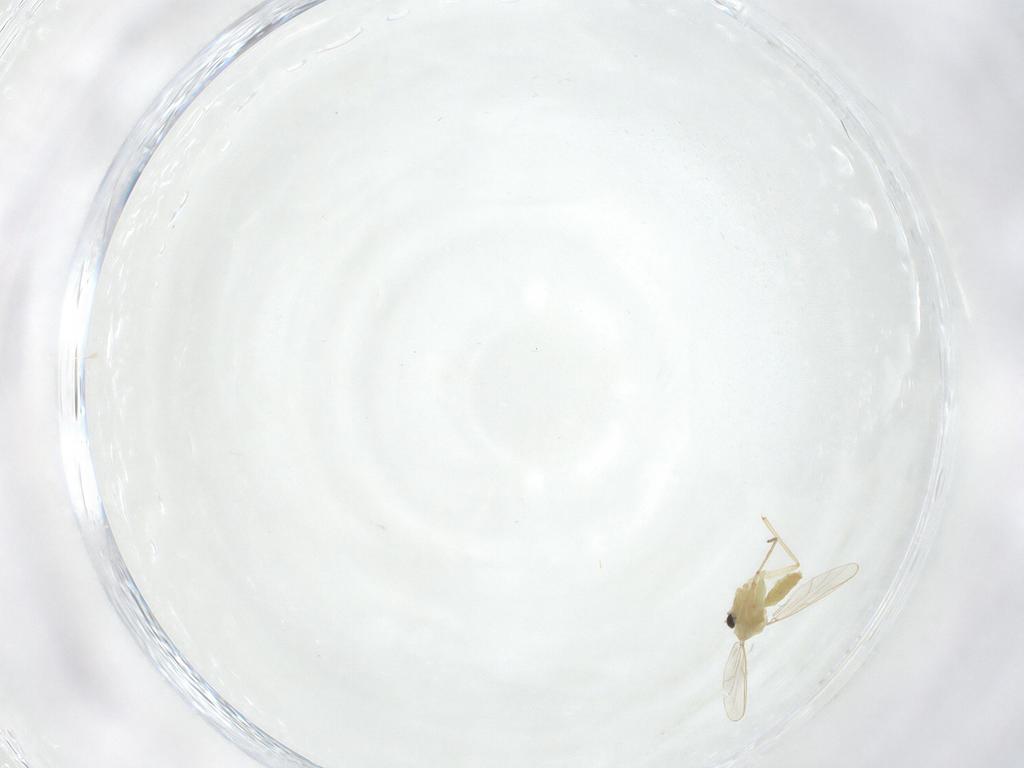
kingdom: Animalia
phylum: Arthropoda
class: Insecta
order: Diptera
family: Chironomidae
